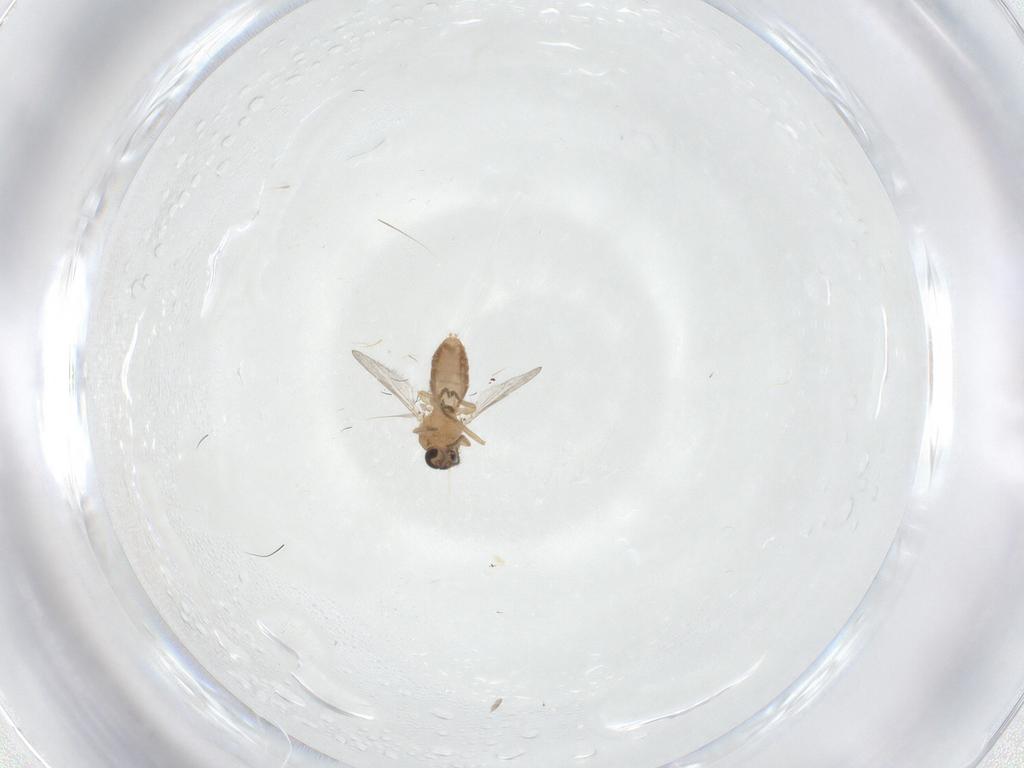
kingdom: Animalia
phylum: Arthropoda
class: Insecta
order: Diptera
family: Ceratopogonidae
